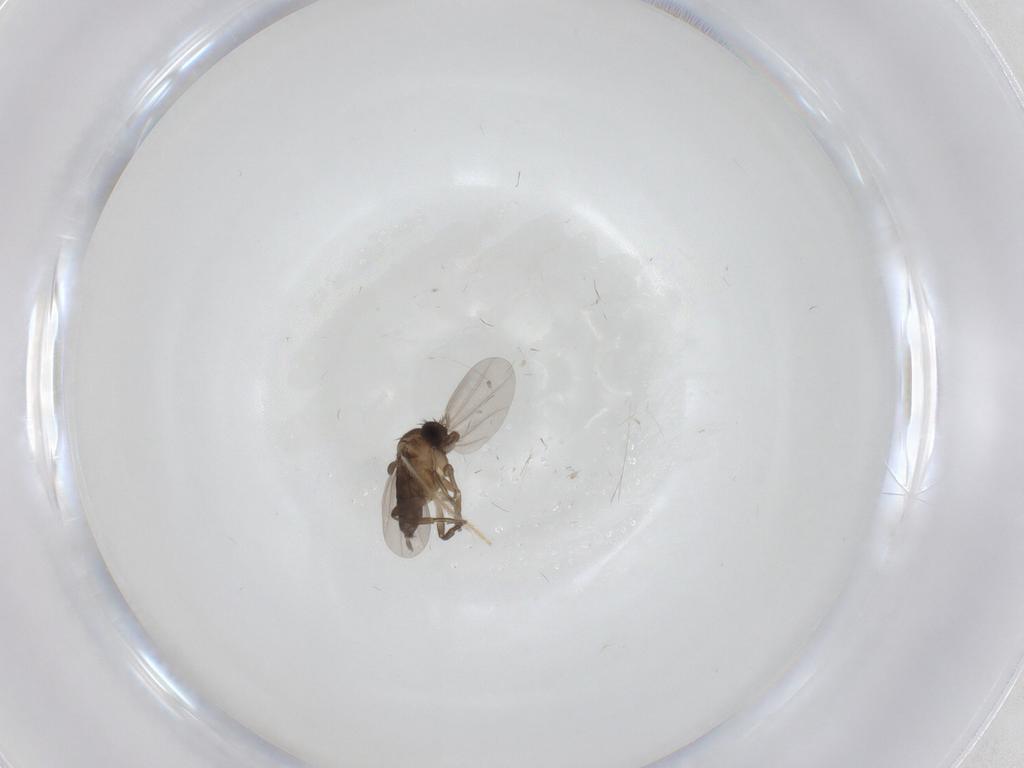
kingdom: Animalia
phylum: Arthropoda
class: Insecta
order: Diptera
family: Phoridae
